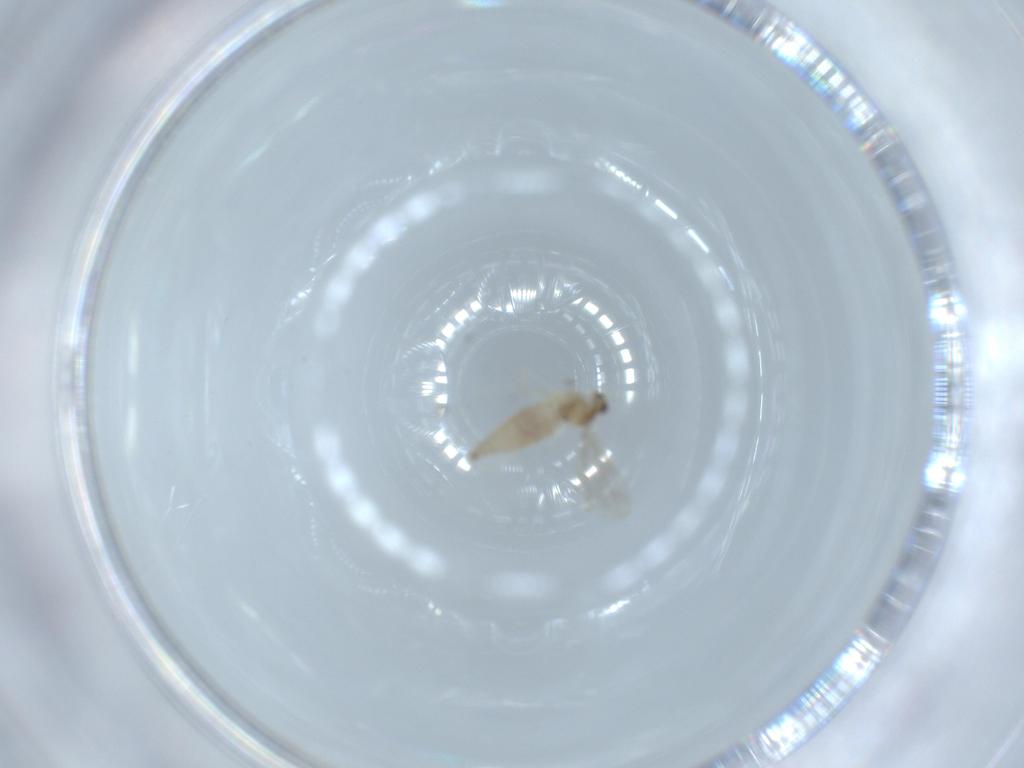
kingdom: Animalia
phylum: Arthropoda
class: Insecta
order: Diptera
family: Cecidomyiidae
